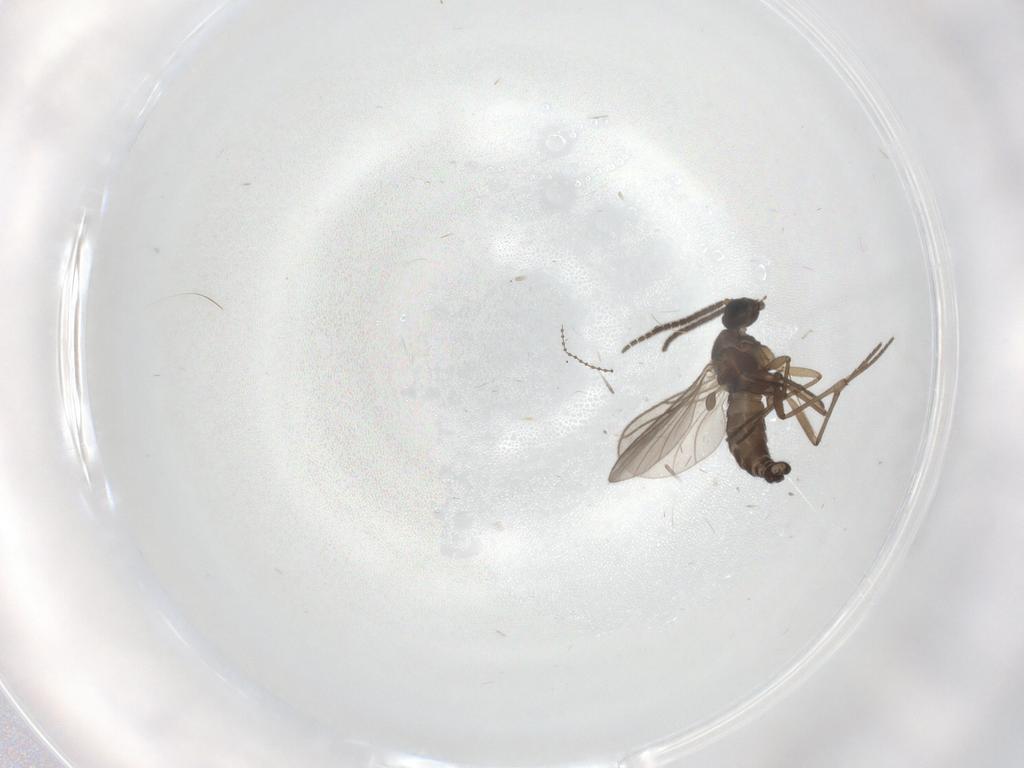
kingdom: Animalia
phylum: Arthropoda
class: Insecta
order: Diptera
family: Sciaridae
